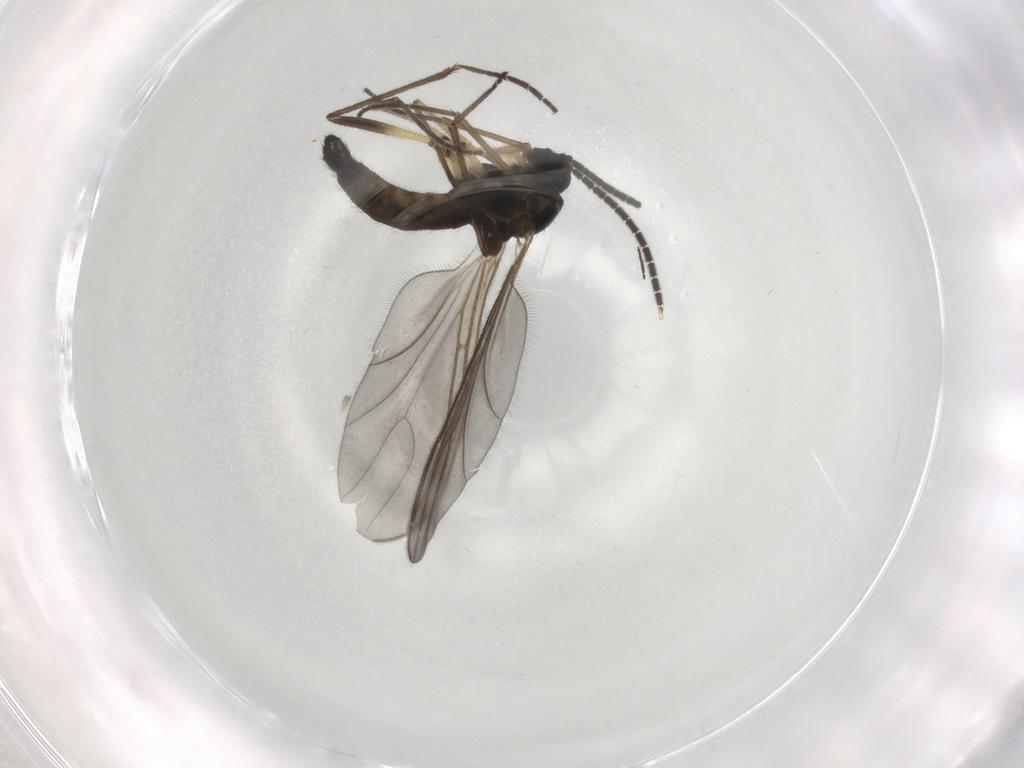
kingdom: Animalia
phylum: Arthropoda
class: Insecta
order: Diptera
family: Sciaridae
